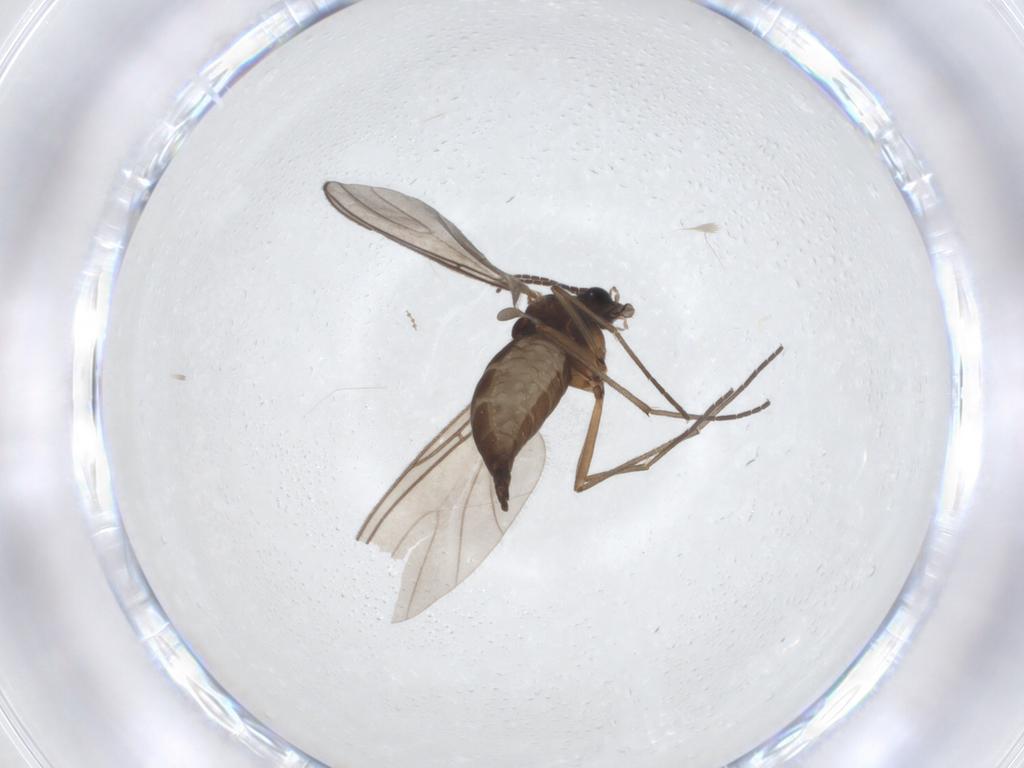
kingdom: Animalia
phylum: Arthropoda
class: Insecta
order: Diptera
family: Sciaridae
